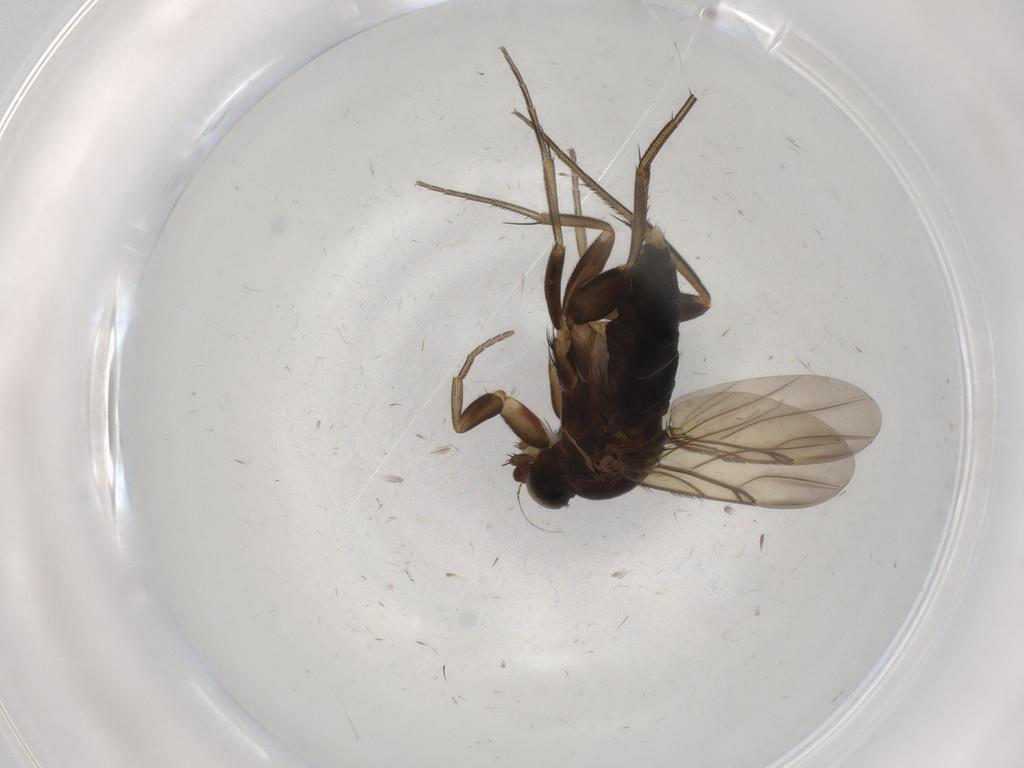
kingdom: Animalia
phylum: Arthropoda
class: Insecta
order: Diptera
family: Phoridae
